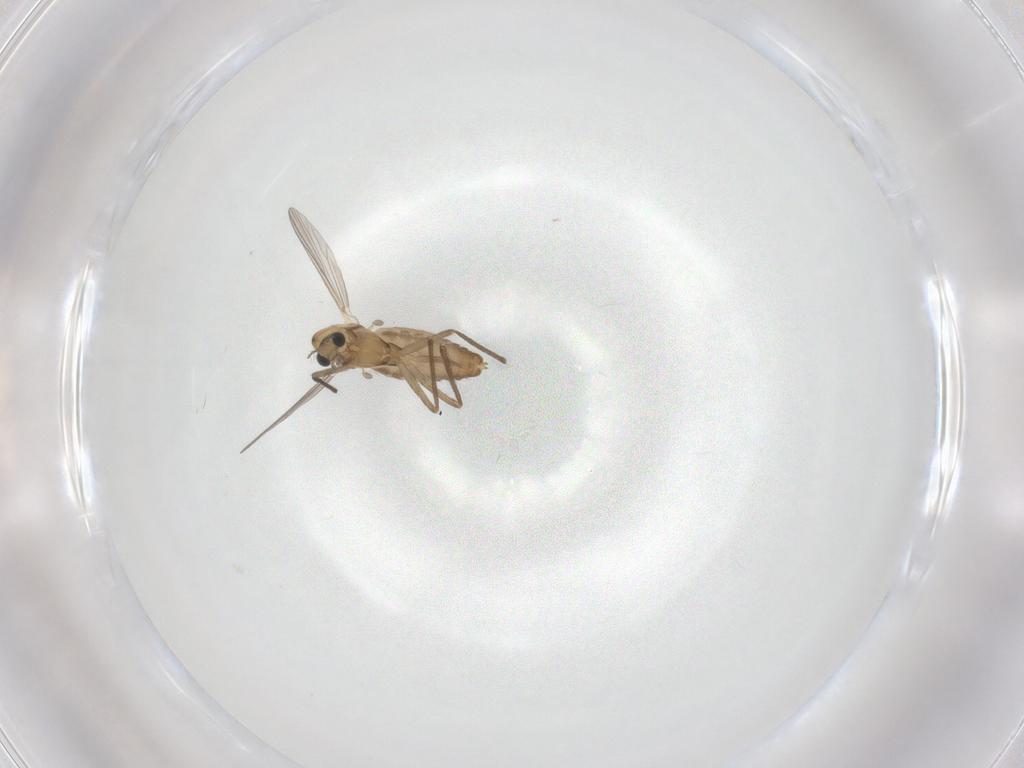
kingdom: Animalia
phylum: Arthropoda
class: Insecta
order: Diptera
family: Chironomidae
